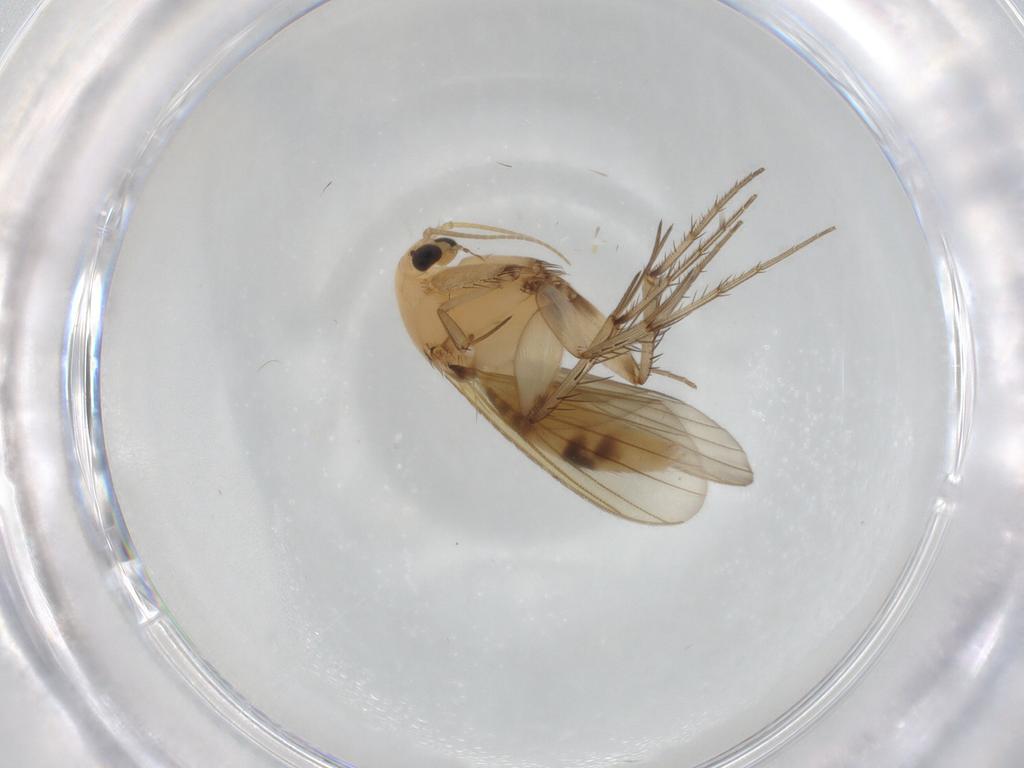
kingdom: Animalia
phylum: Arthropoda
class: Insecta
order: Diptera
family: Mycetophilidae
